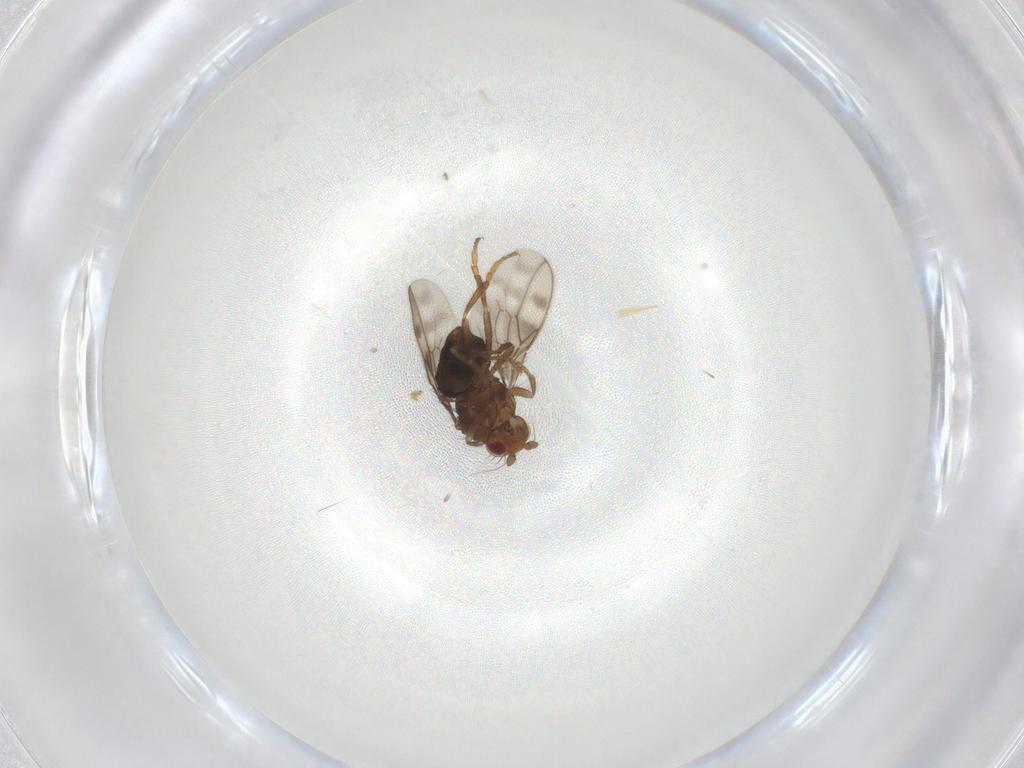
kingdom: Animalia
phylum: Arthropoda
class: Insecta
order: Diptera
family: Sphaeroceridae
